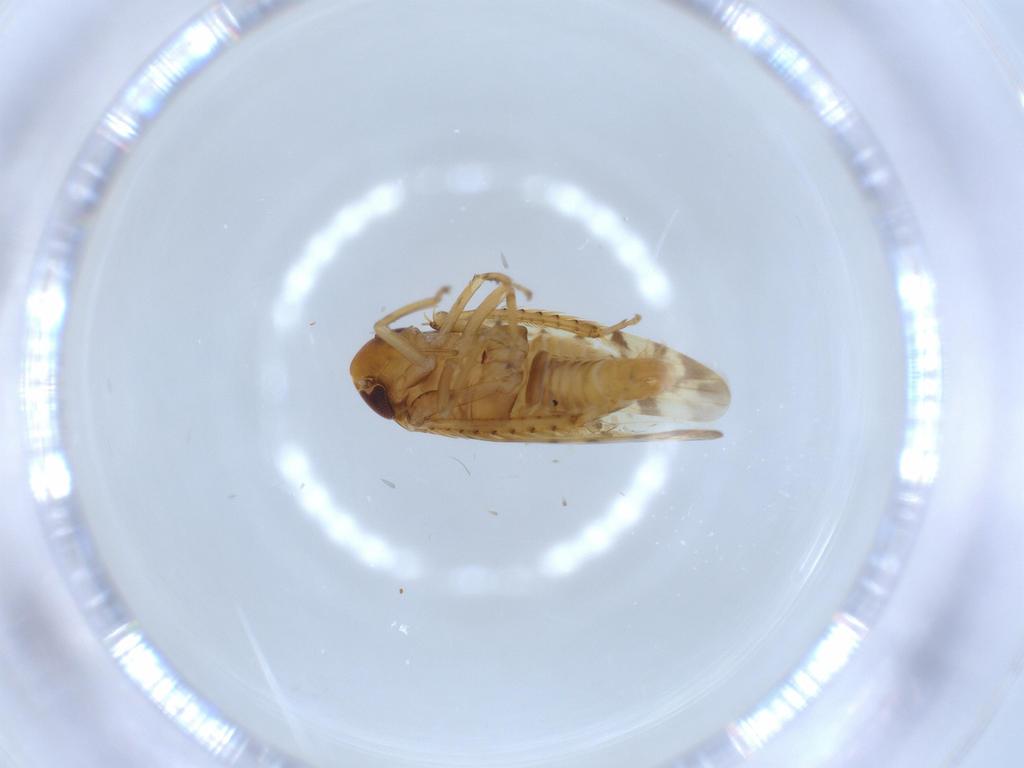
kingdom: Animalia
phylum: Arthropoda
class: Insecta
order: Hemiptera
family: Cicadellidae
